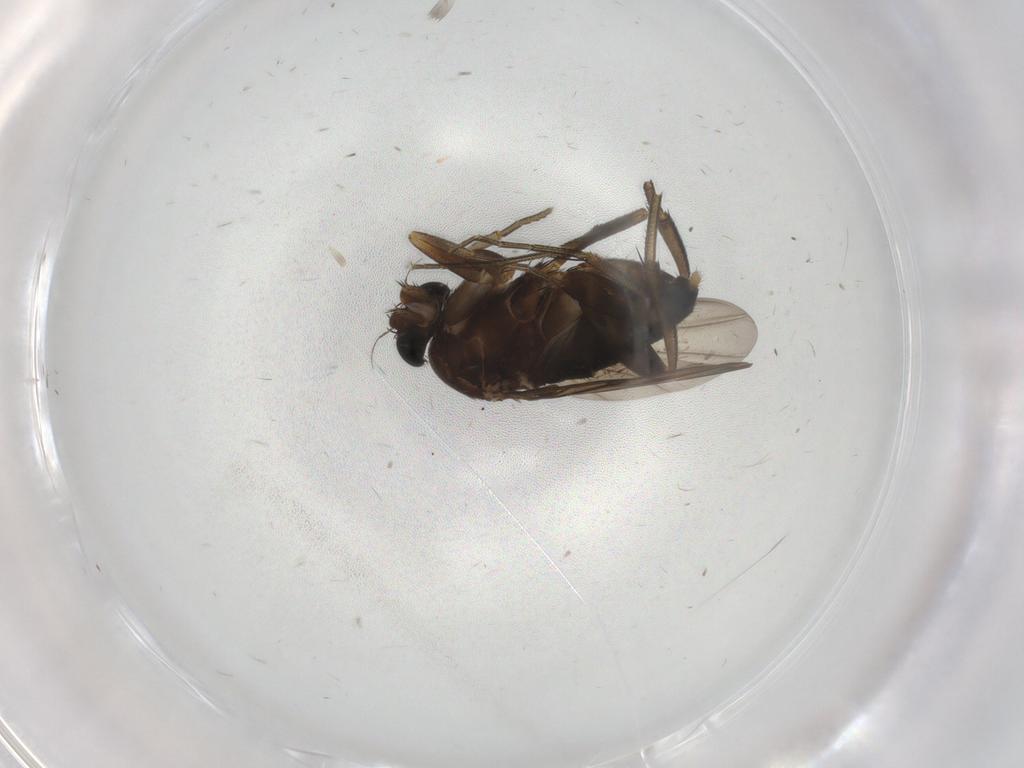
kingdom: Animalia
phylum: Arthropoda
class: Insecta
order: Diptera
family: Phoridae
